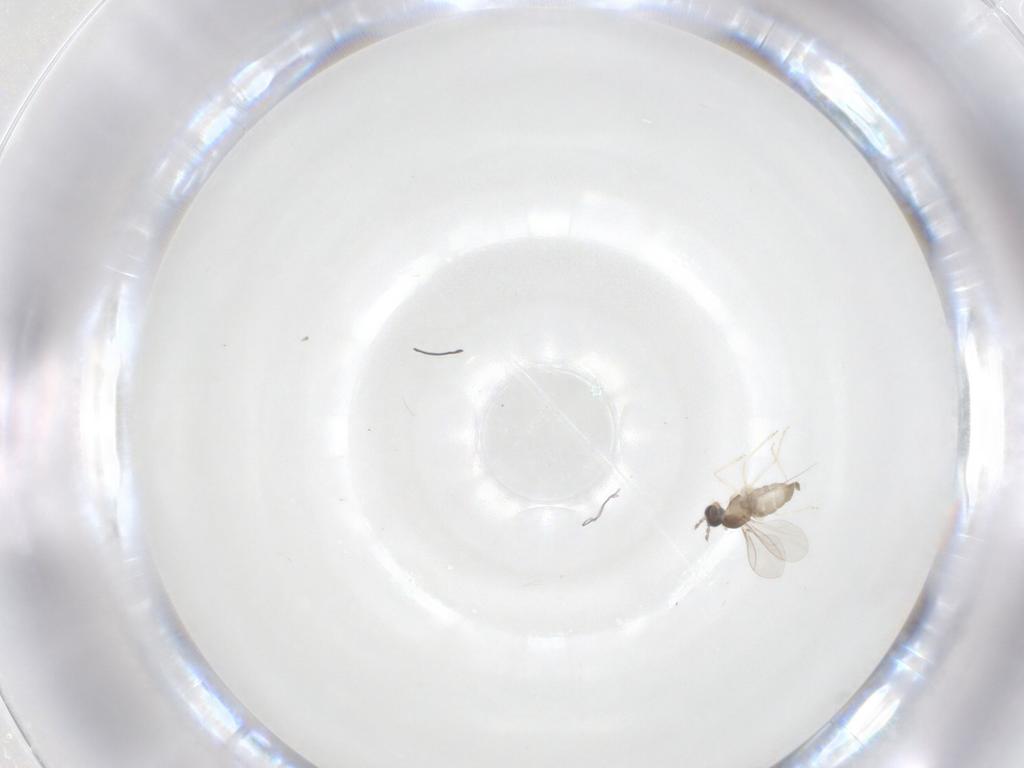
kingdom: Animalia
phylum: Arthropoda
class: Insecta
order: Diptera
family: Cecidomyiidae
